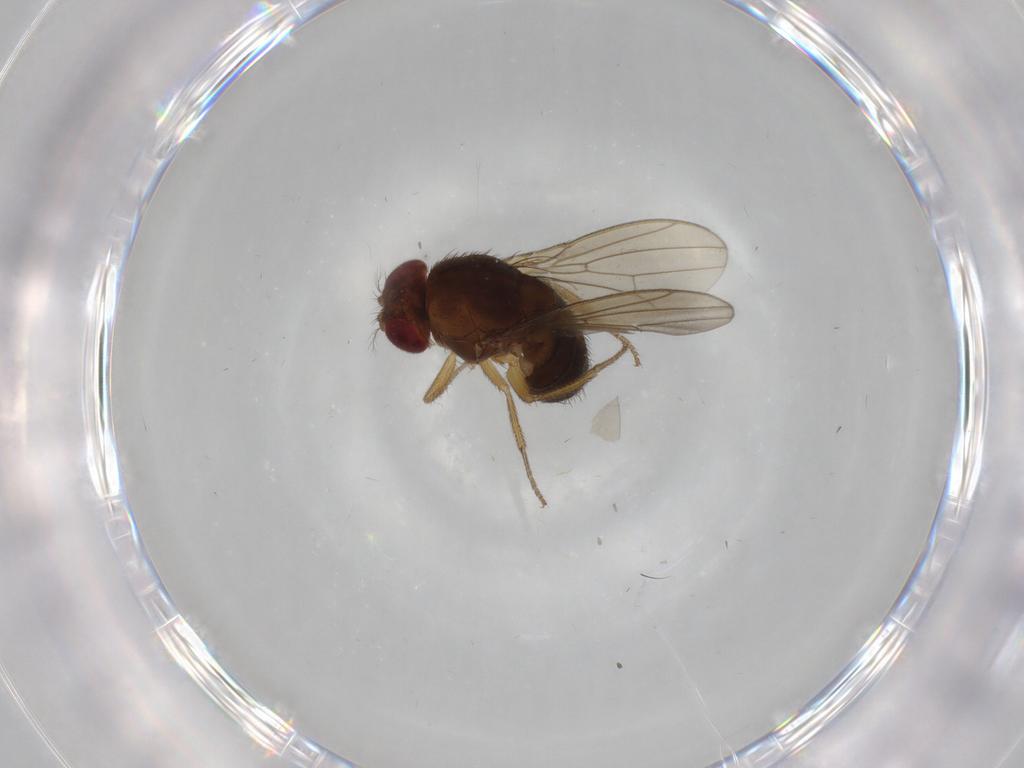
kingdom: Animalia
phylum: Arthropoda
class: Insecta
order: Diptera
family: Drosophilidae
